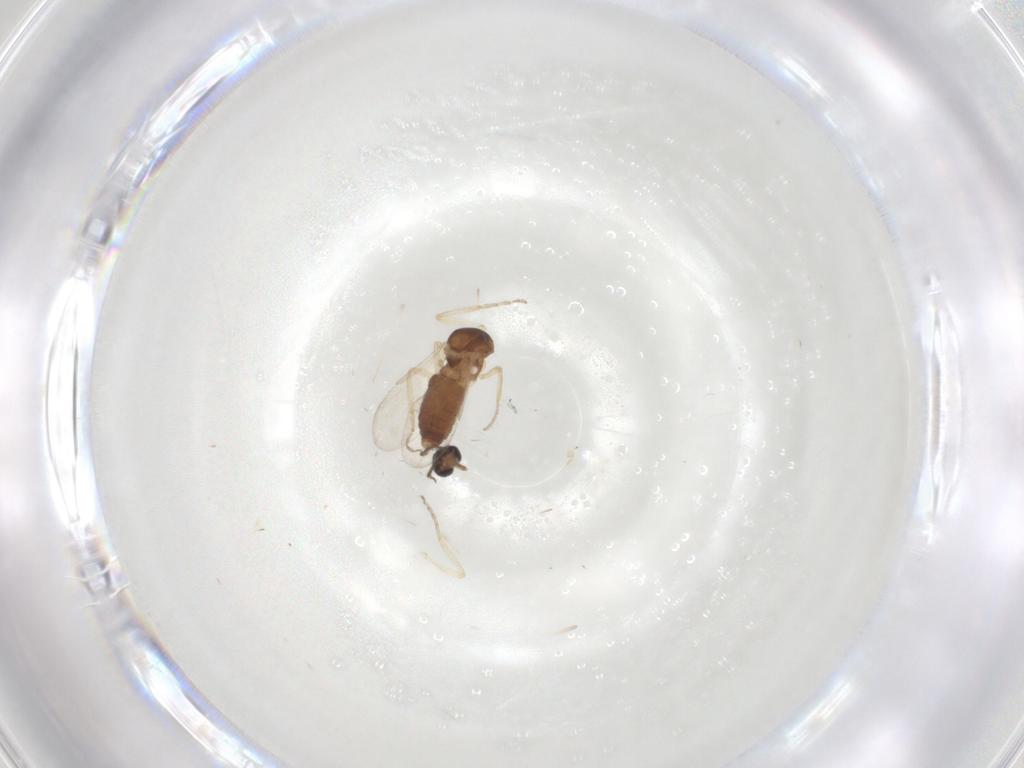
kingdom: Animalia
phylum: Arthropoda
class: Insecta
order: Diptera
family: Ceratopogonidae
